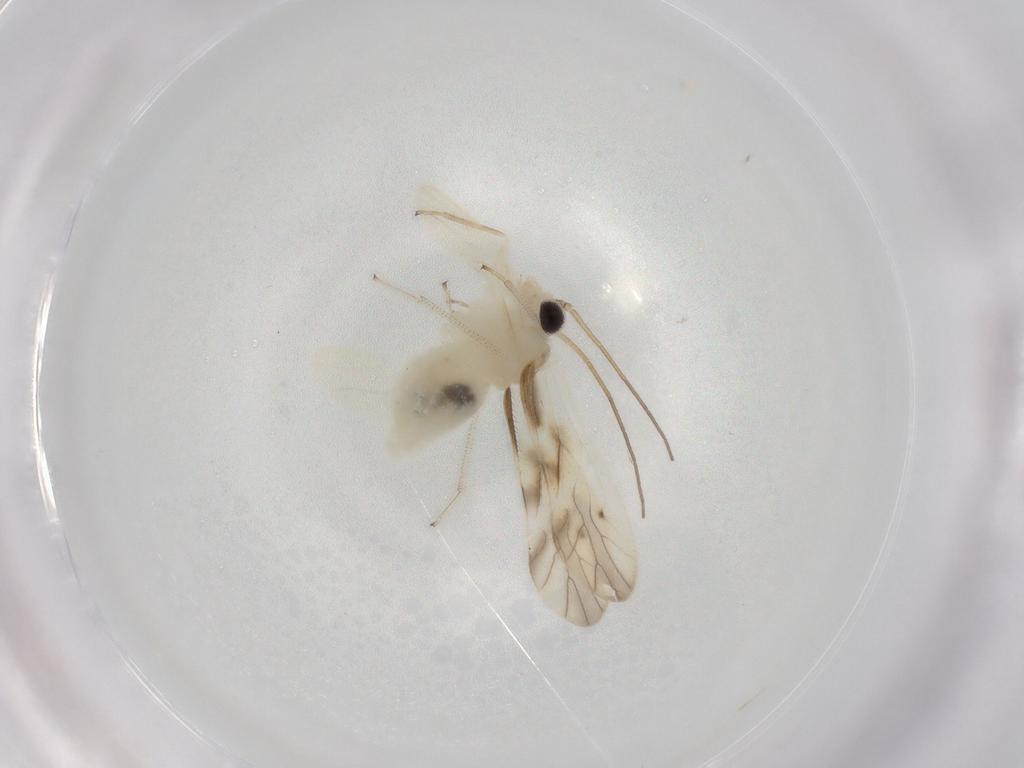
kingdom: Animalia
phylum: Arthropoda
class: Insecta
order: Psocodea
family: Caeciliusidae
